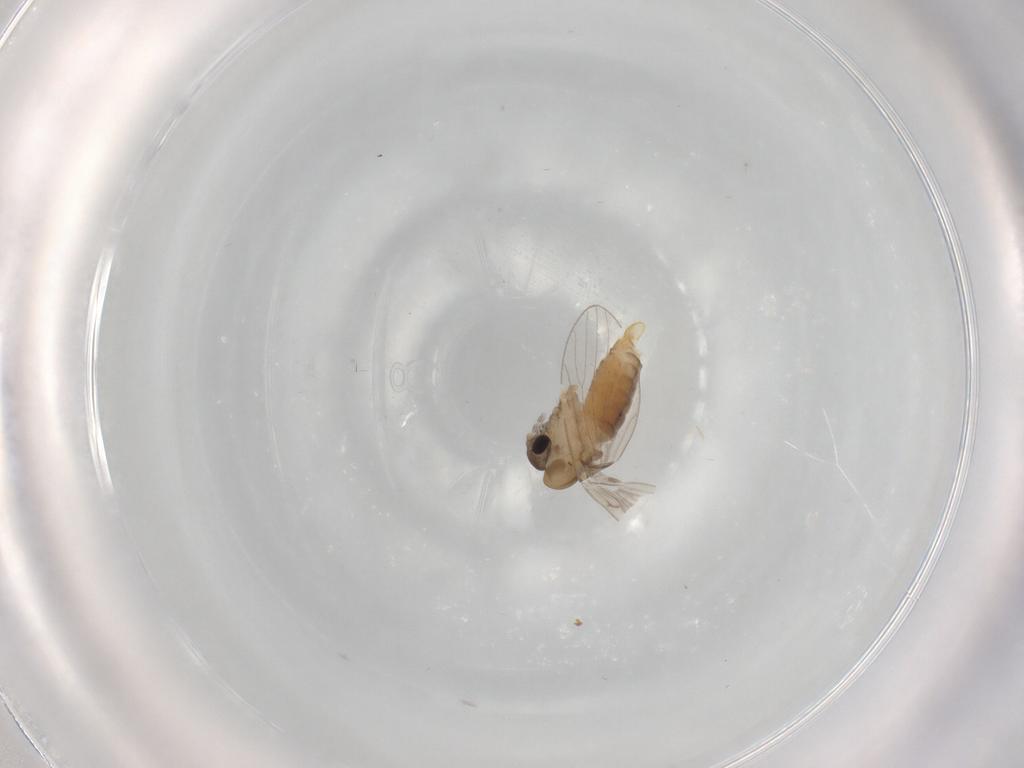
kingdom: Animalia
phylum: Arthropoda
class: Insecta
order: Diptera
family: Psychodidae
